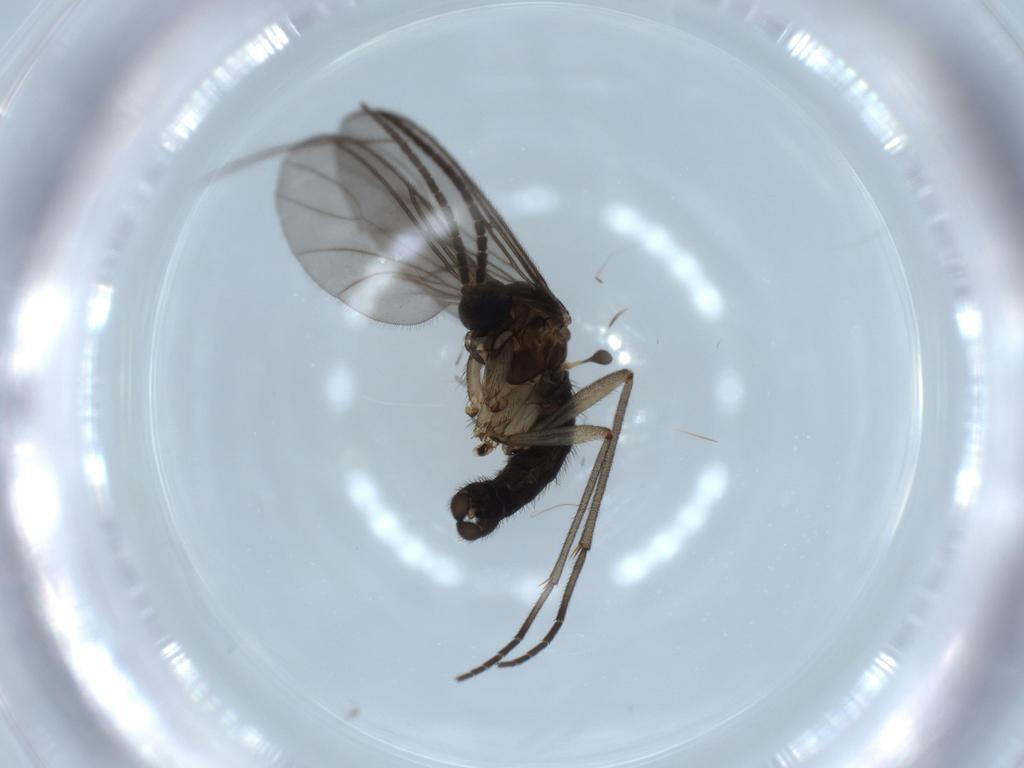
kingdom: Animalia
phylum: Arthropoda
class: Insecta
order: Diptera
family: Sciaridae
